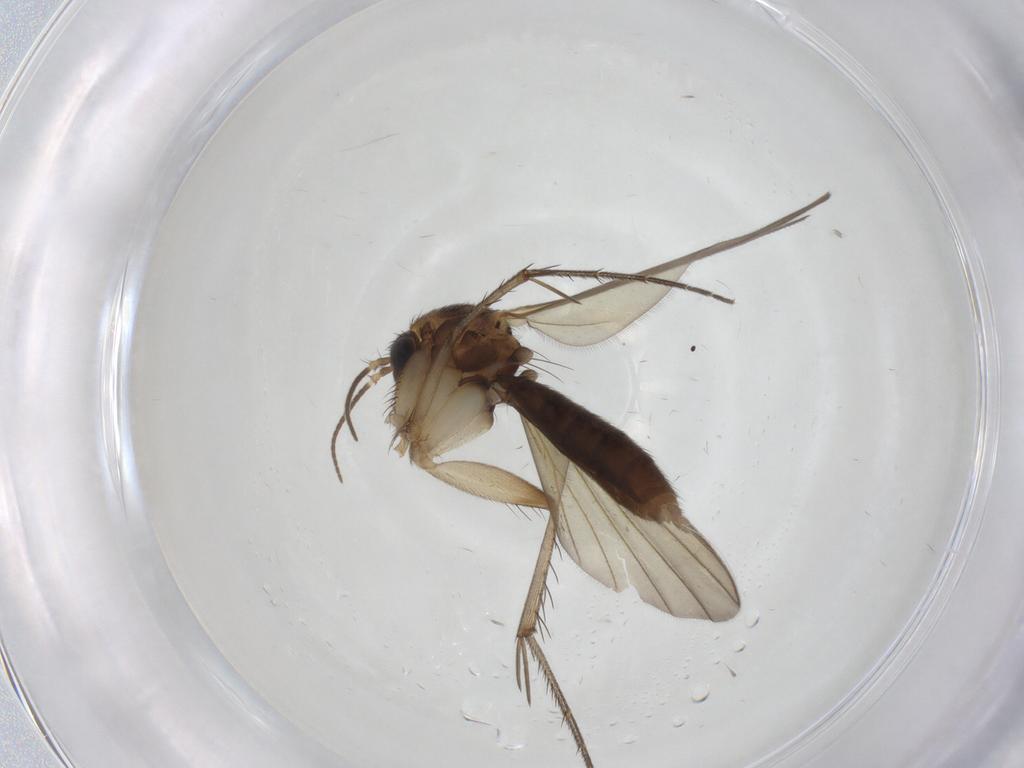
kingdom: Animalia
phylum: Arthropoda
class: Insecta
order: Diptera
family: Mycetophilidae
